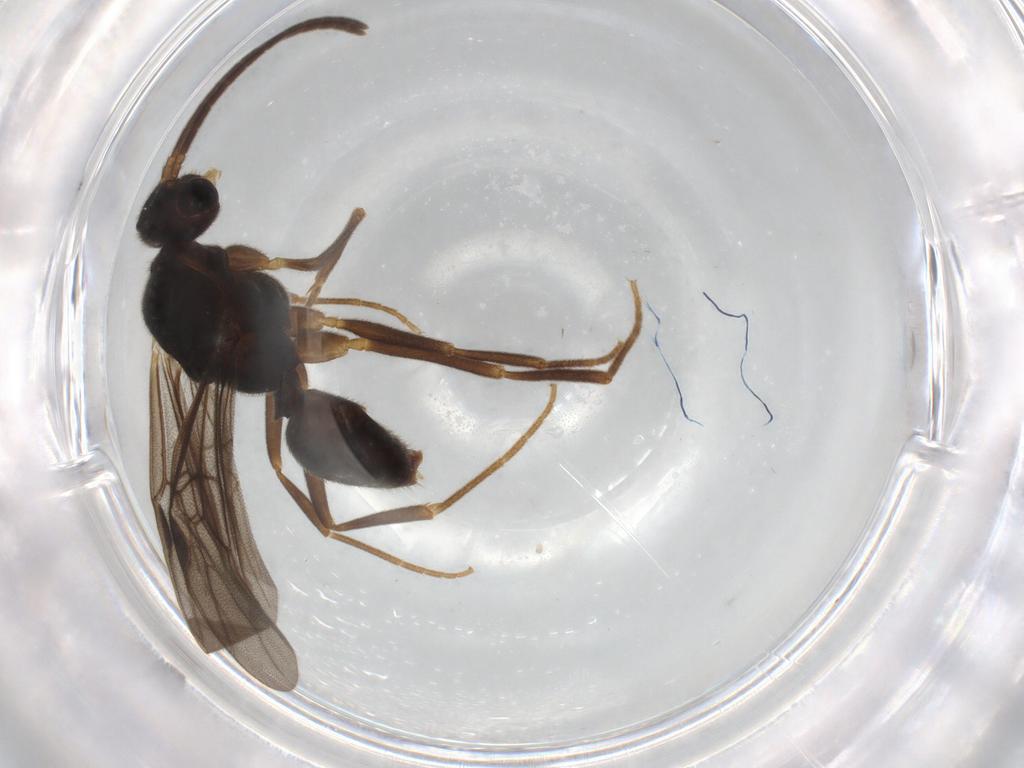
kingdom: Animalia
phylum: Arthropoda
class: Insecta
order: Hymenoptera
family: Formicidae
